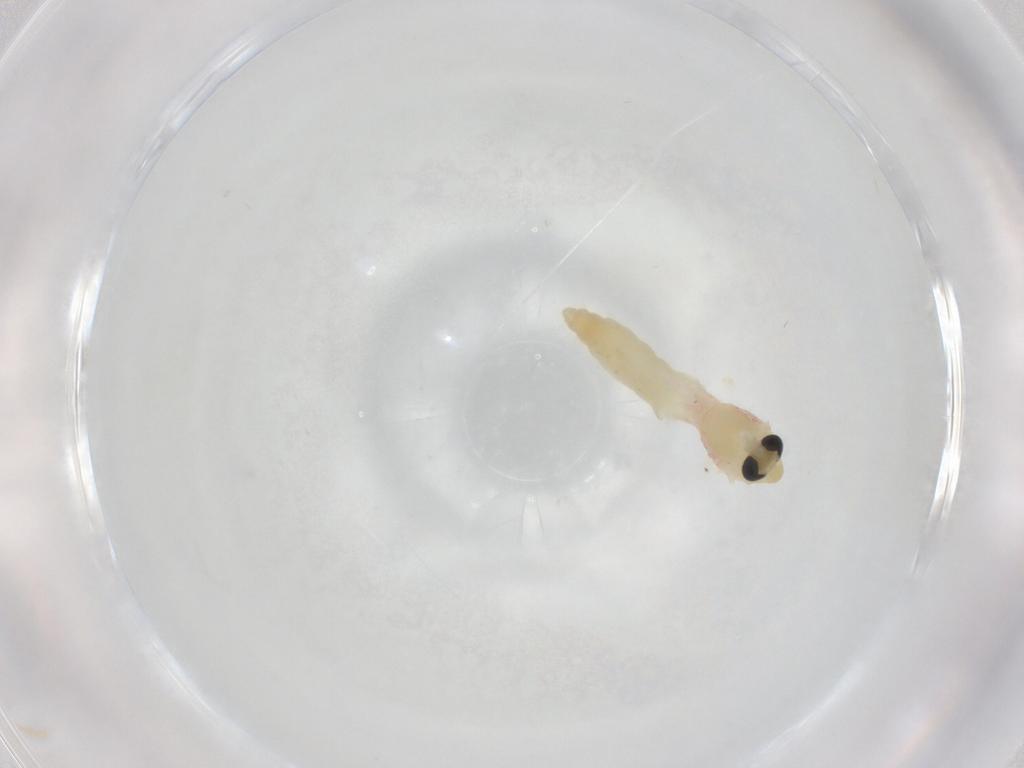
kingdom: Animalia
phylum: Arthropoda
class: Insecta
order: Diptera
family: Chironomidae
